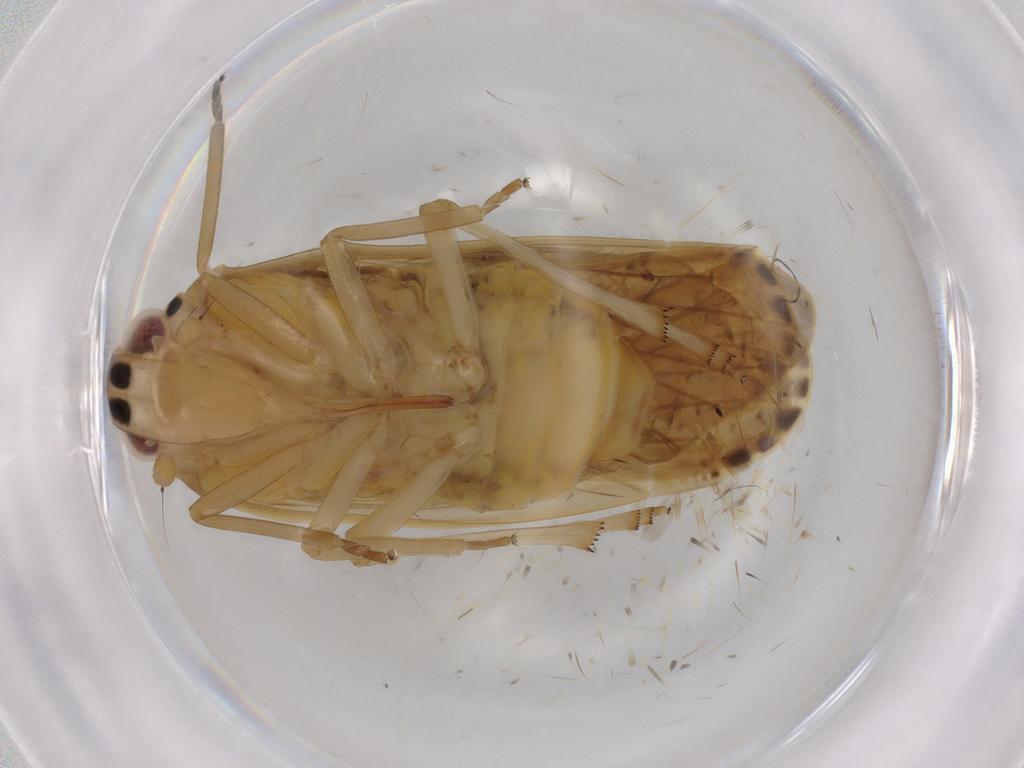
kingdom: Animalia
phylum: Arthropoda
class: Insecta
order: Hemiptera
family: Achilidae
